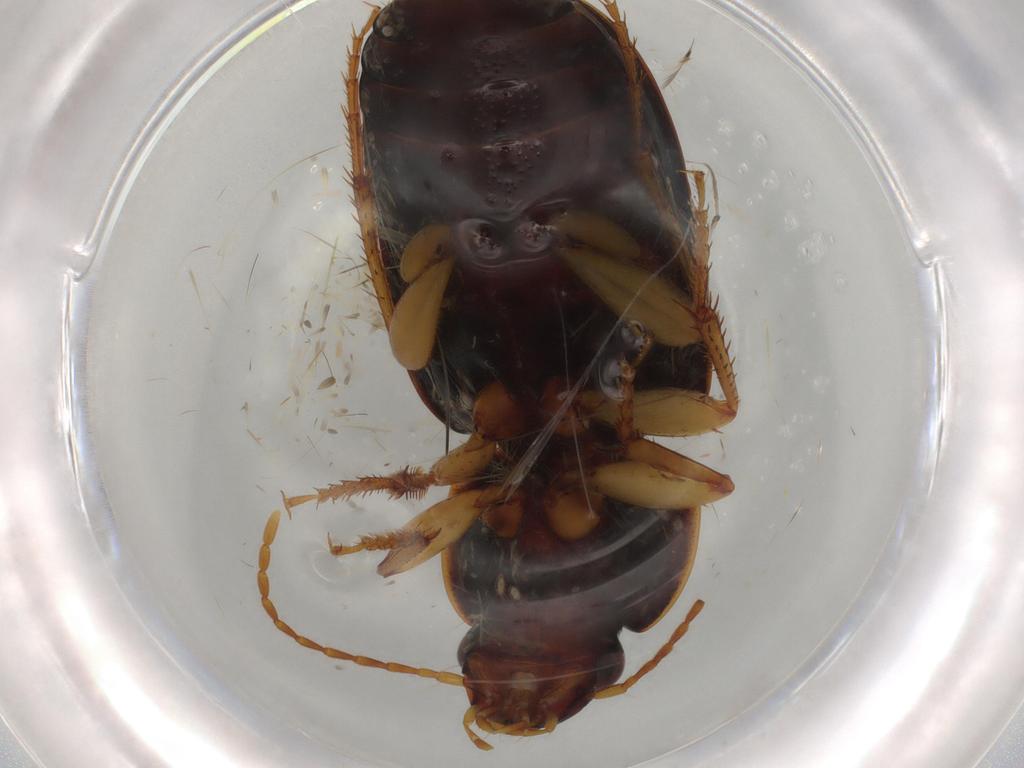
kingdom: Animalia
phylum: Arthropoda
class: Insecta
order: Coleoptera
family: Carabidae
